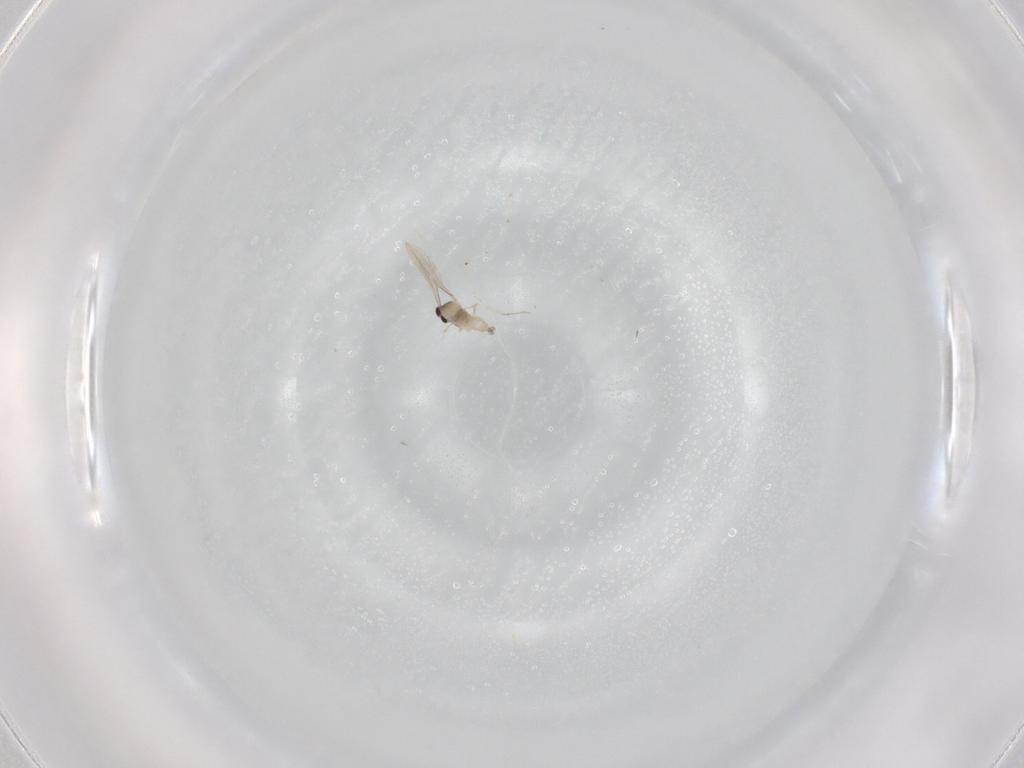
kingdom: Animalia
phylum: Arthropoda
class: Insecta
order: Diptera
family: Cecidomyiidae
